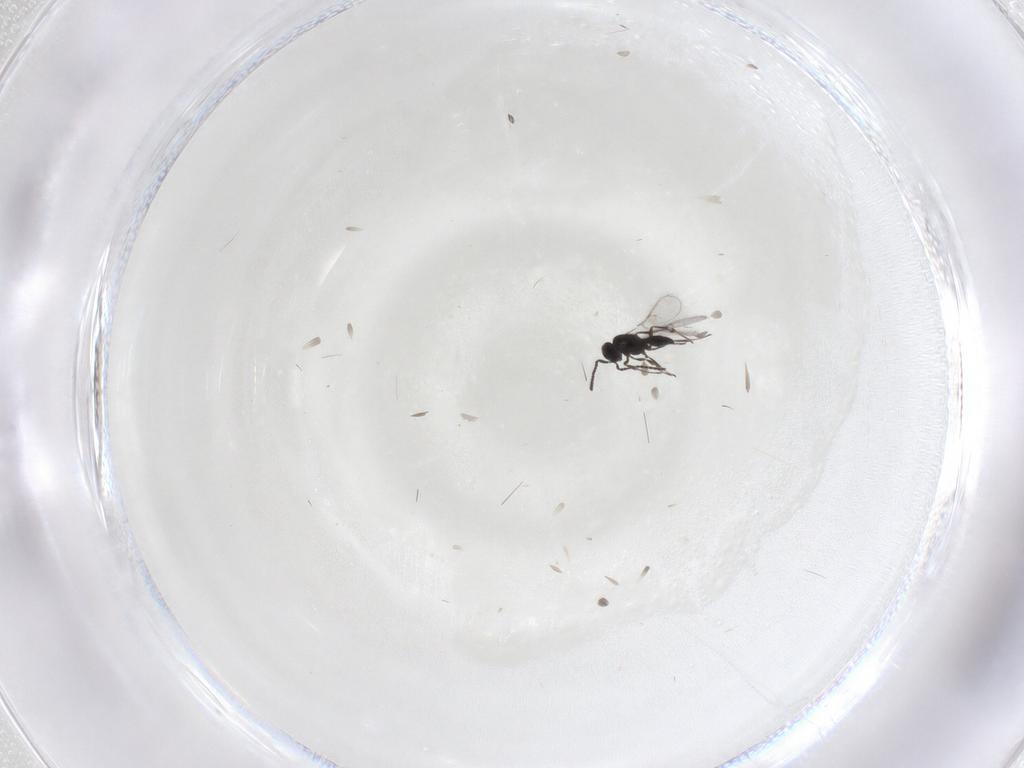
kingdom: Animalia
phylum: Arthropoda
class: Insecta
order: Hymenoptera
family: Scelionidae
